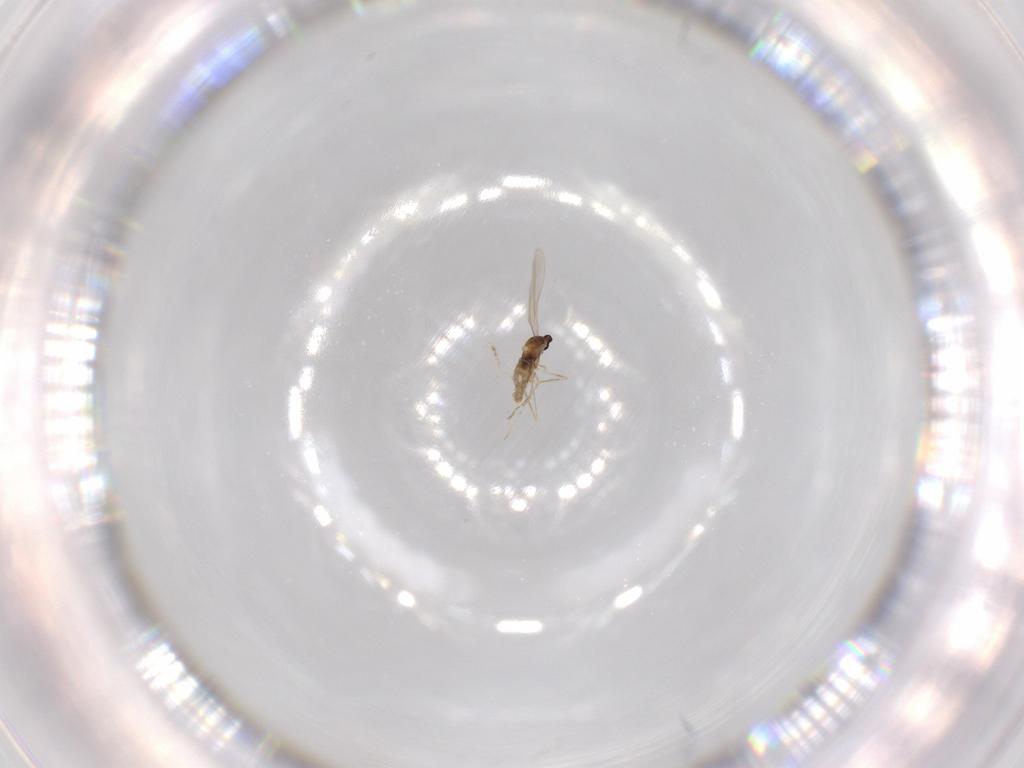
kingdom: Animalia
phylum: Arthropoda
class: Insecta
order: Diptera
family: Cecidomyiidae
